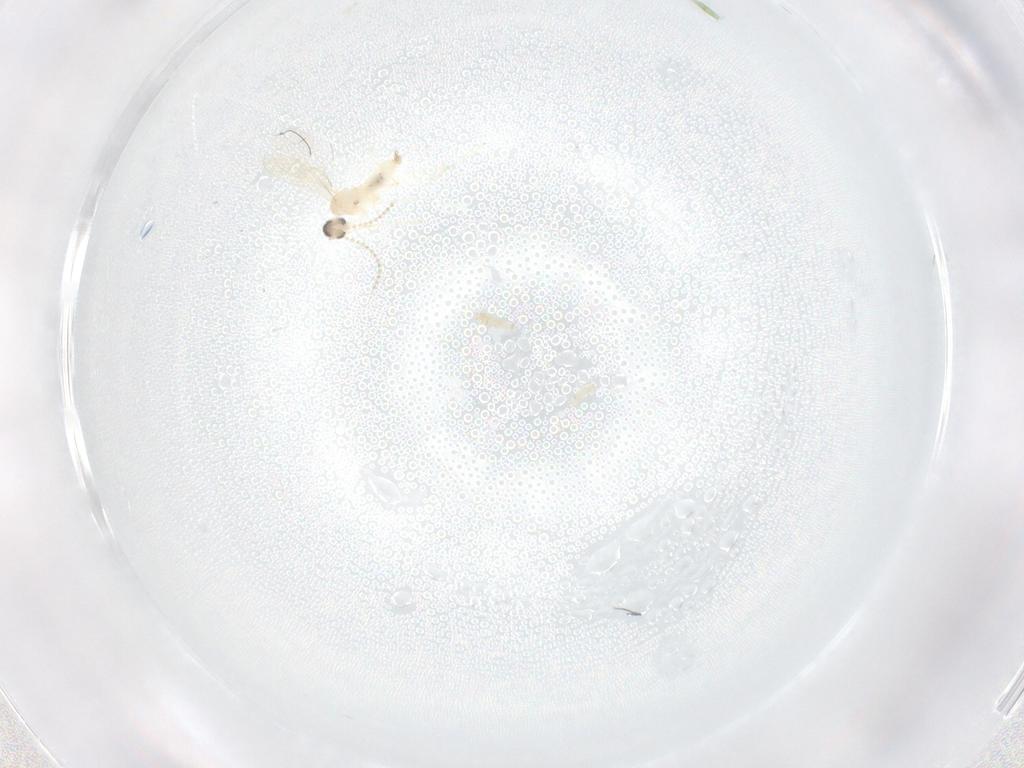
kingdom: Animalia
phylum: Arthropoda
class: Insecta
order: Diptera
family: Cecidomyiidae
